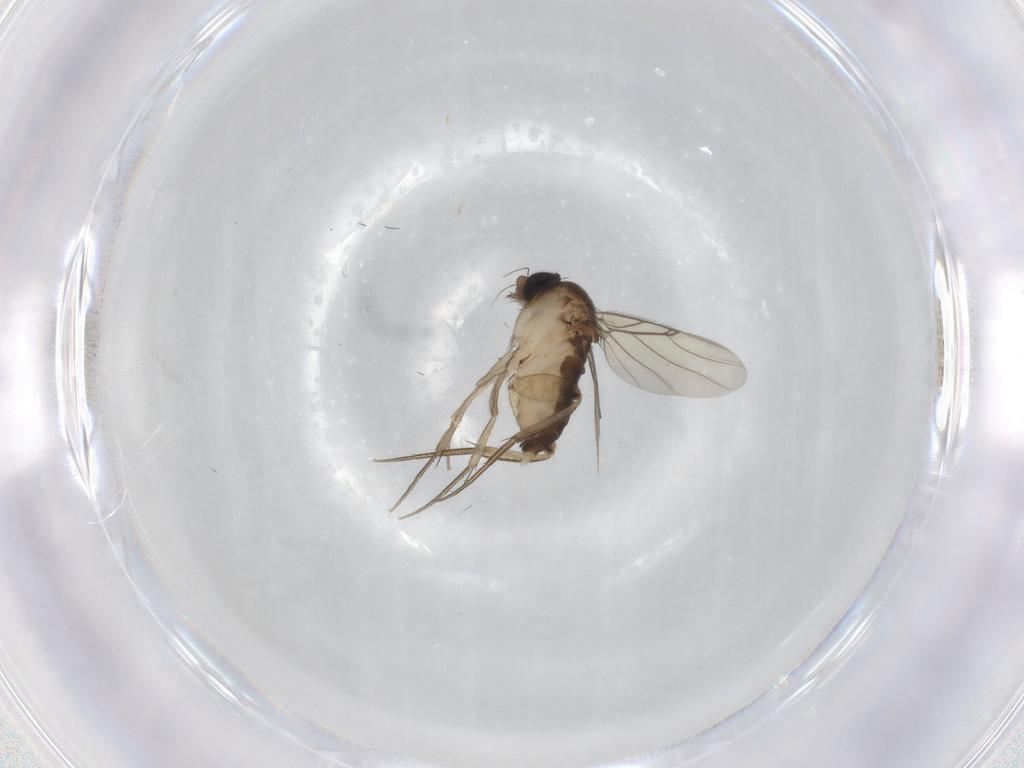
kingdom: Animalia
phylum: Arthropoda
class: Insecta
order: Diptera
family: Phoridae
